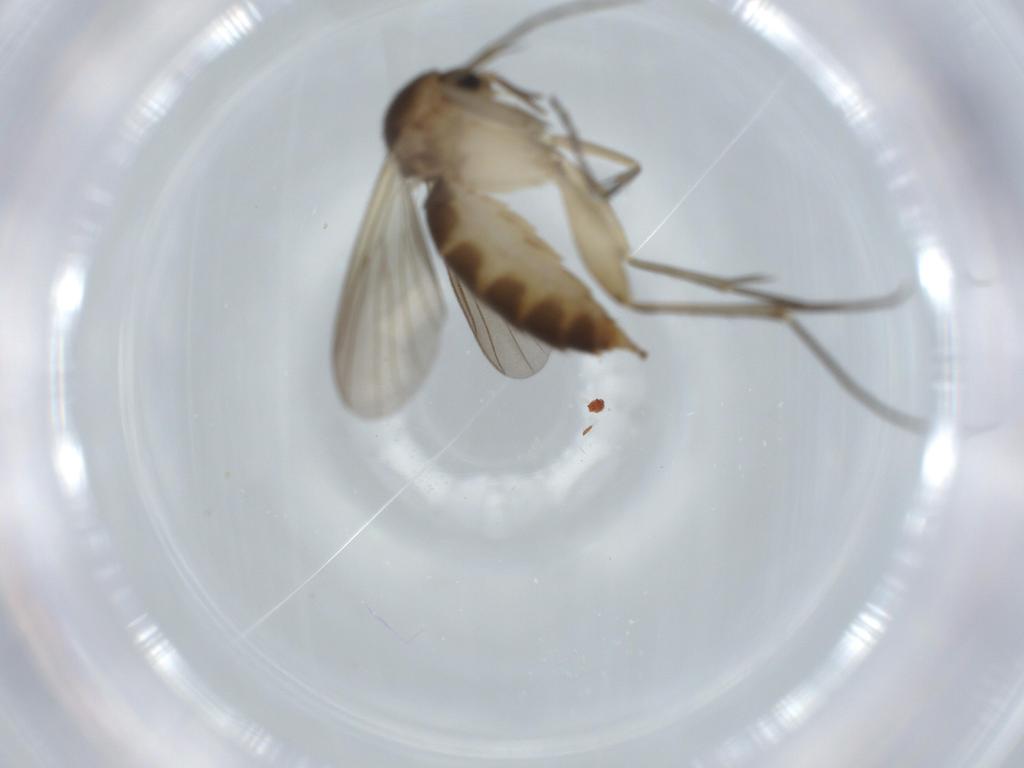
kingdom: Animalia
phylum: Arthropoda
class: Insecta
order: Diptera
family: Mycetophilidae
